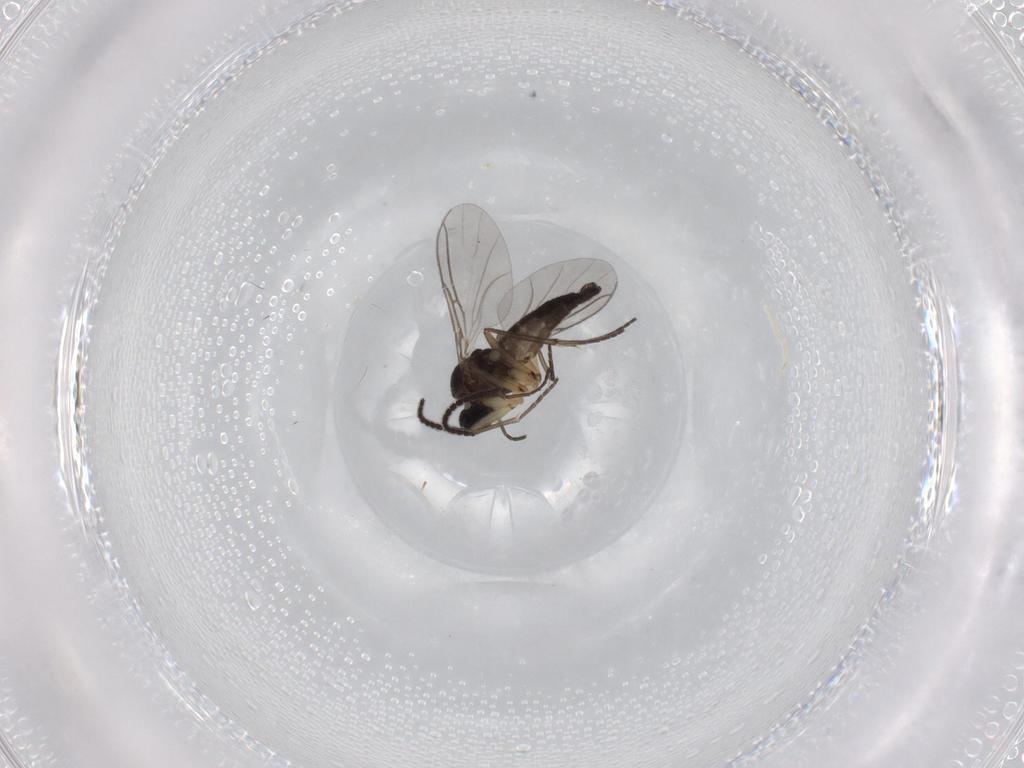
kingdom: Animalia
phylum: Arthropoda
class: Insecta
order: Diptera
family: Sciaridae
